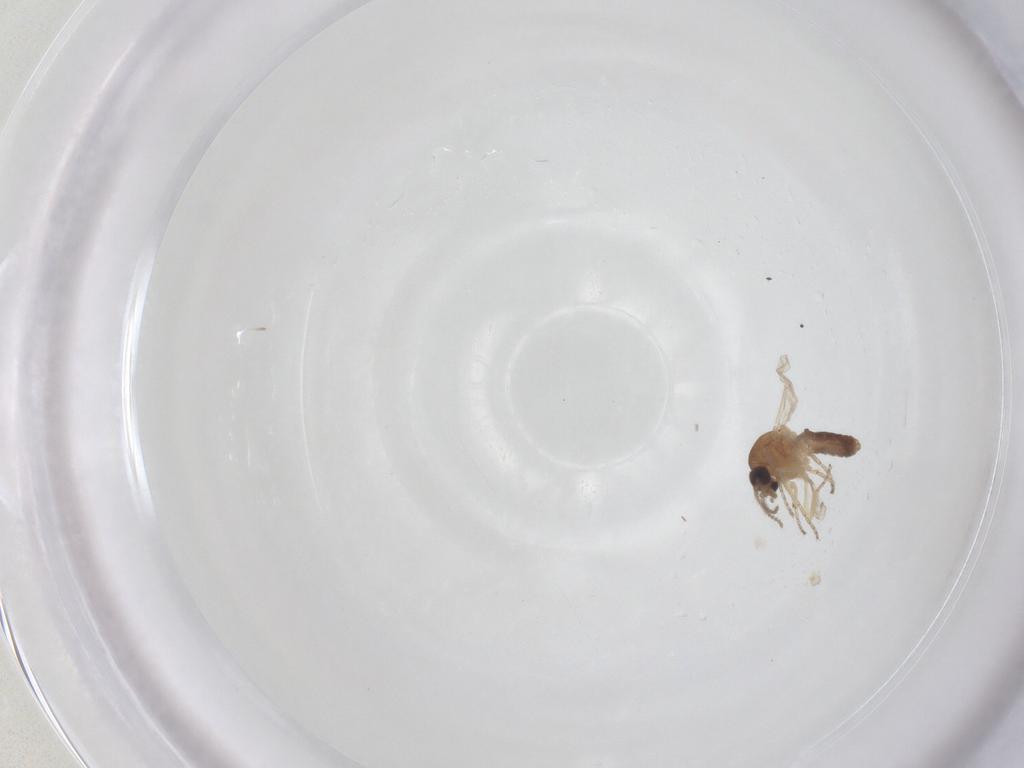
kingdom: Animalia
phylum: Arthropoda
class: Insecta
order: Diptera
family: Ceratopogonidae
